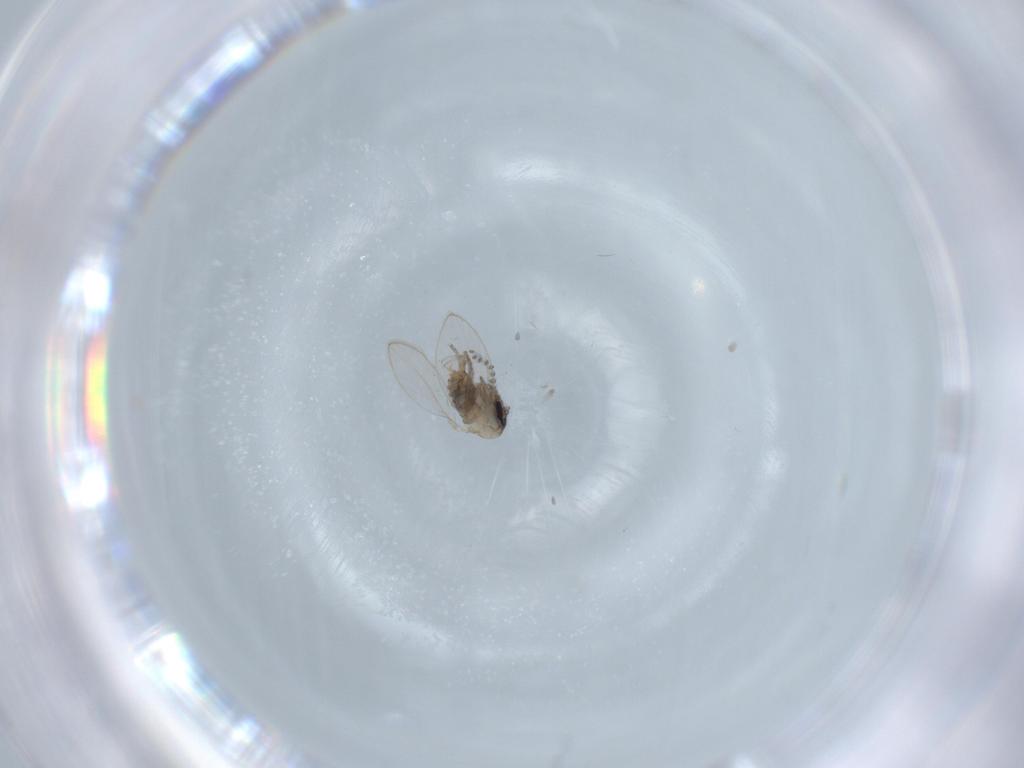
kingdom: Animalia
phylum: Arthropoda
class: Insecta
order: Diptera
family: Psychodidae
